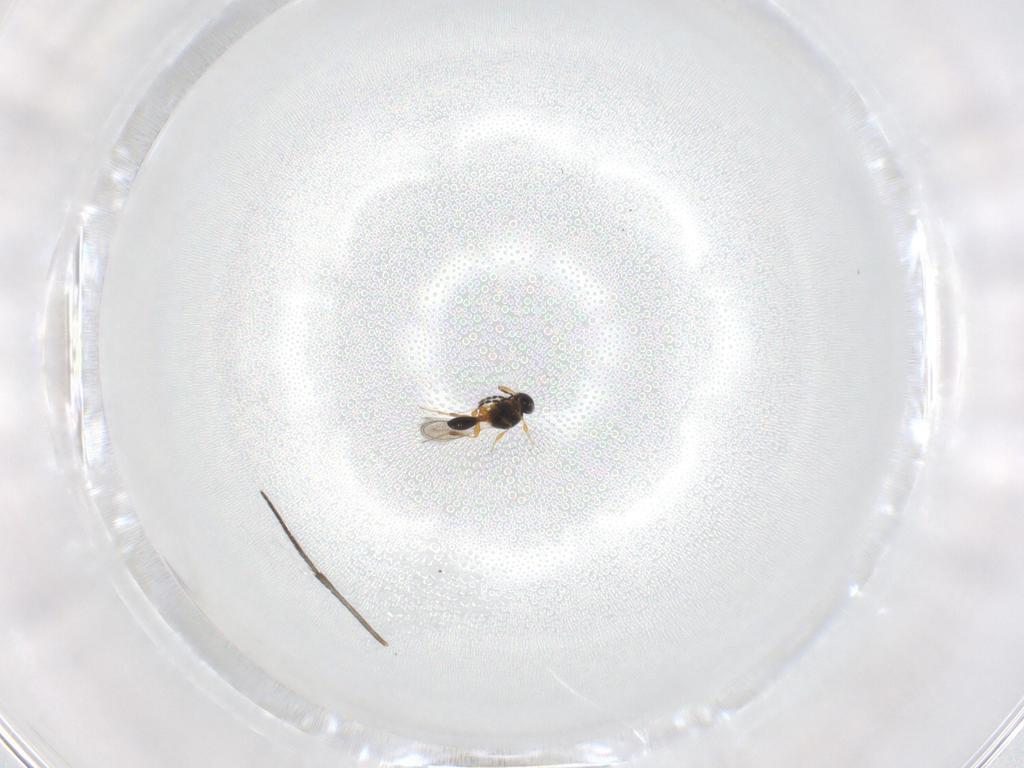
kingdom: Animalia
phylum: Arthropoda
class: Insecta
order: Hymenoptera
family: Platygastridae
